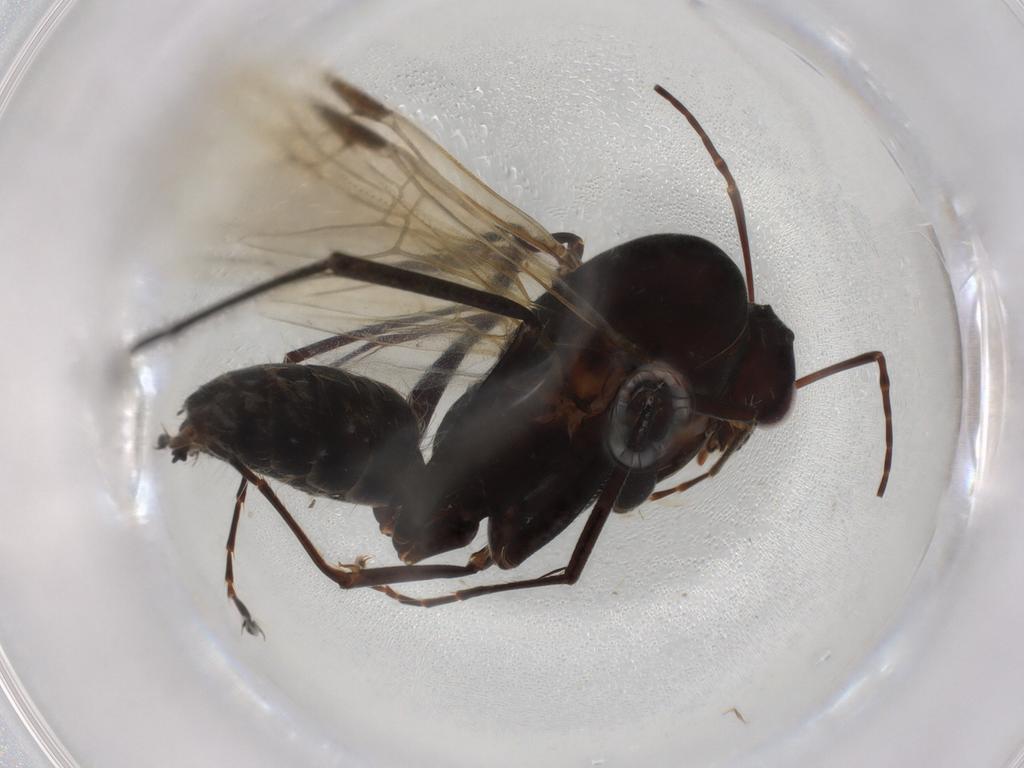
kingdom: Animalia
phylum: Arthropoda
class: Insecta
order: Hymenoptera
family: Formicidae
